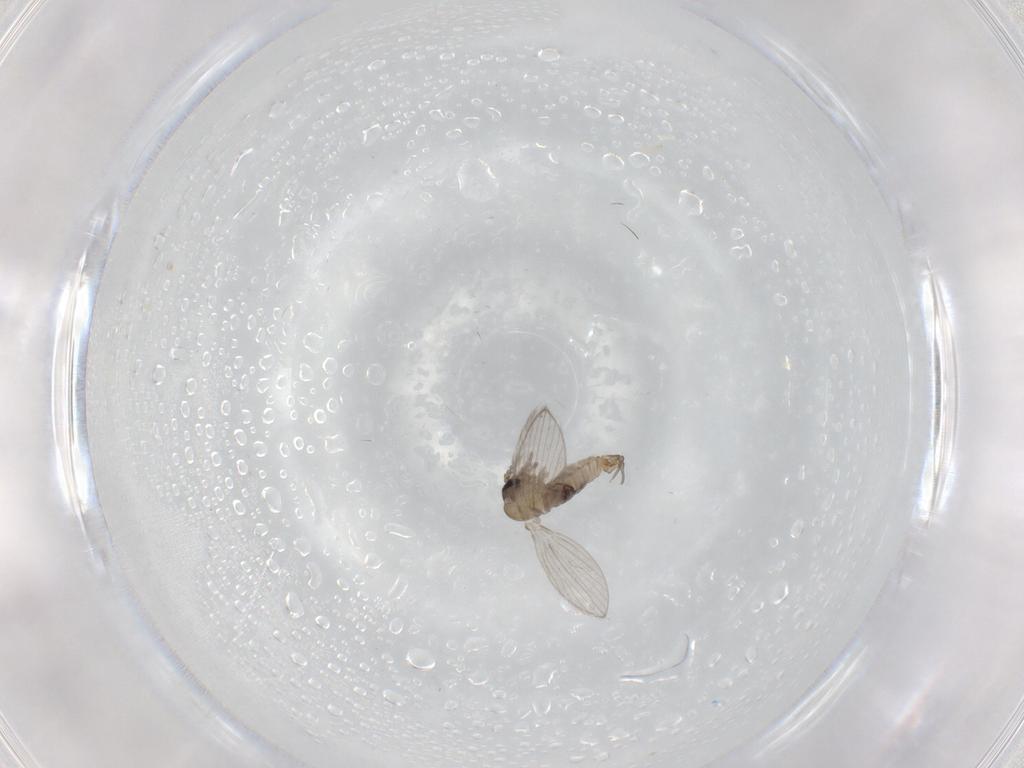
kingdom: Animalia
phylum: Arthropoda
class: Insecta
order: Diptera
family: Psychodidae
